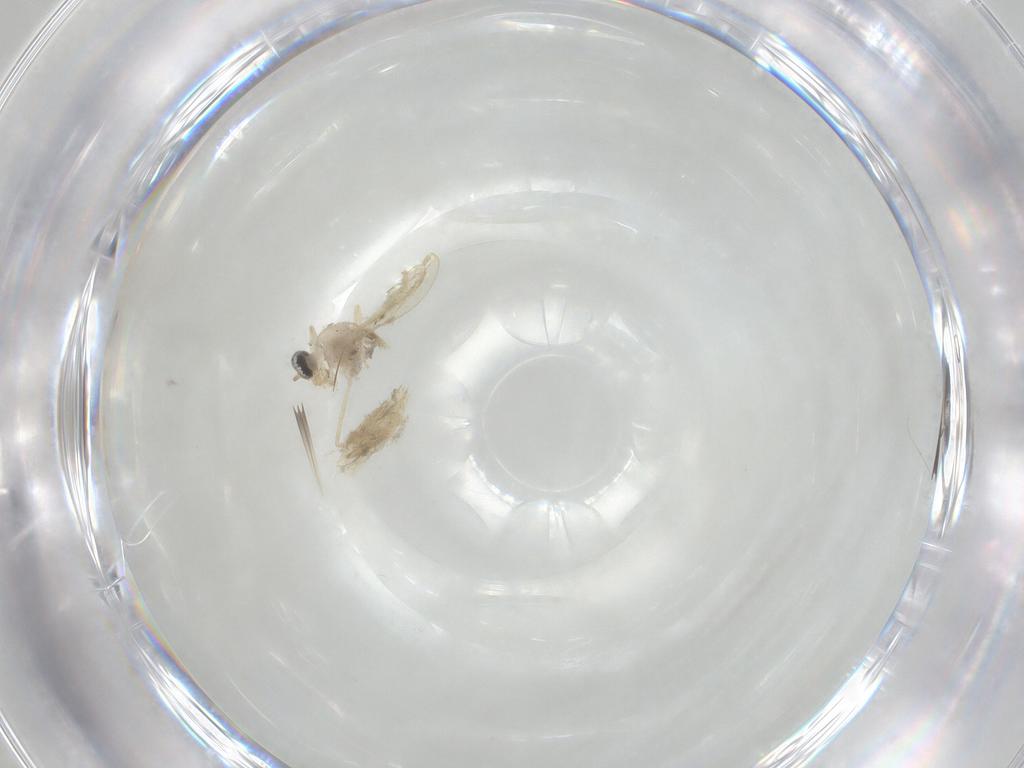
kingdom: Animalia
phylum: Arthropoda
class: Insecta
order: Diptera
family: Cecidomyiidae
